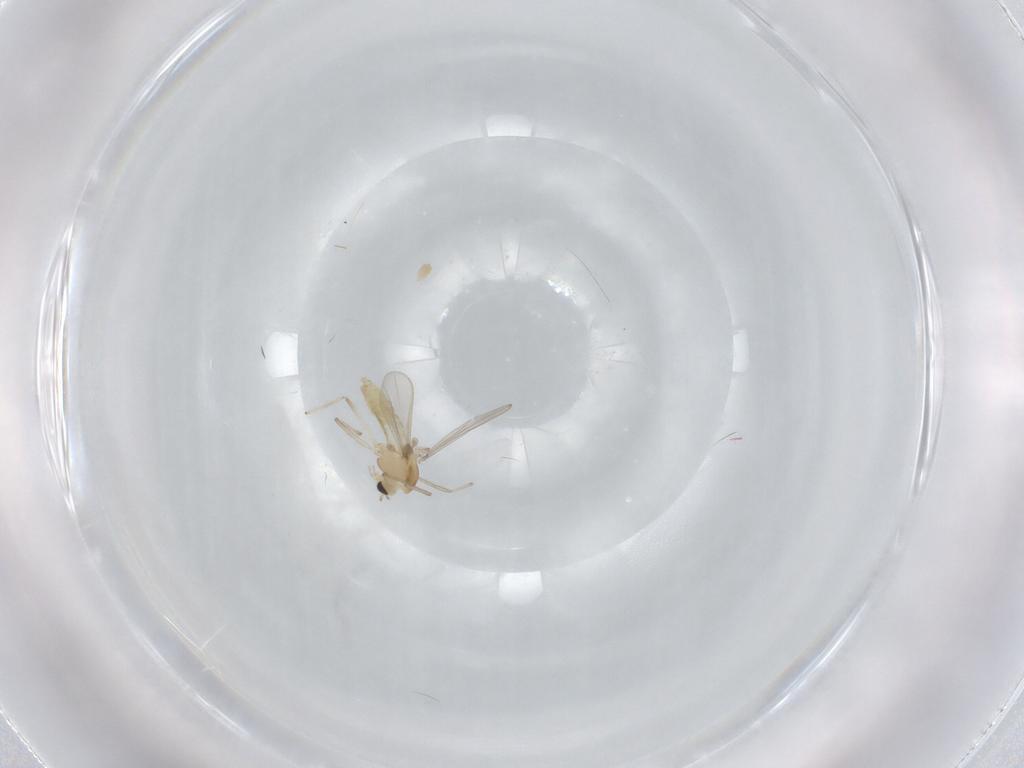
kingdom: Animalia
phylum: Arthropoda
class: Insecta
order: Diptera
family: Chironomidae
